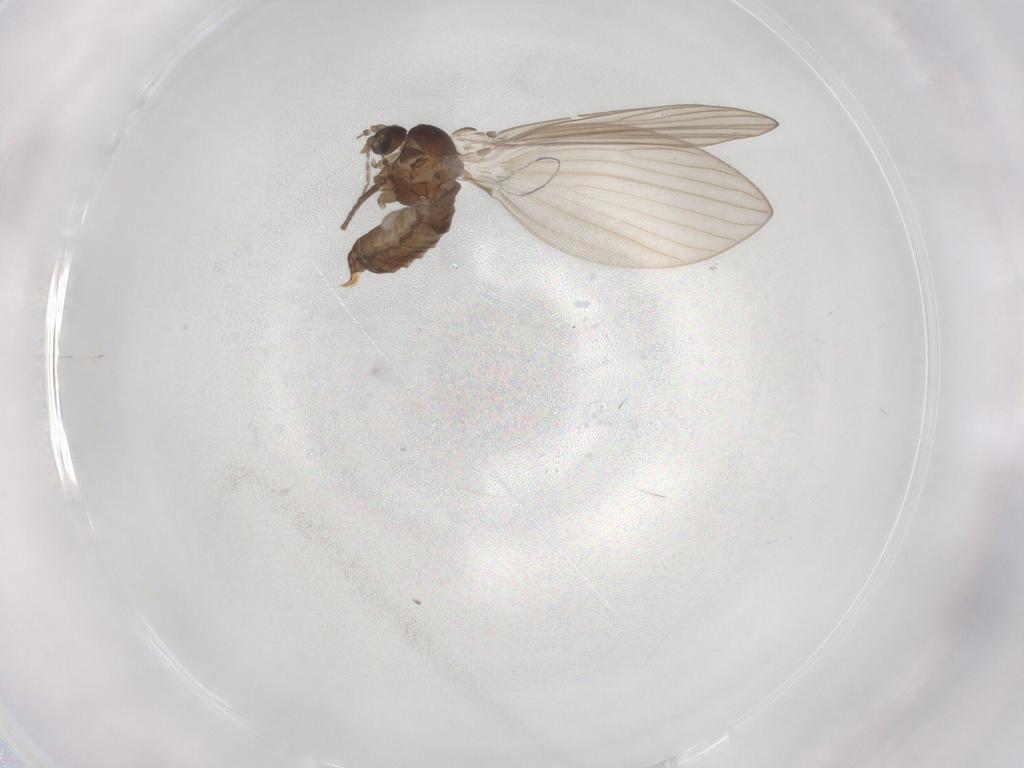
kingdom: Animalia
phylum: Arthropoda
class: Insecta
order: Diptera
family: Psychodidae
